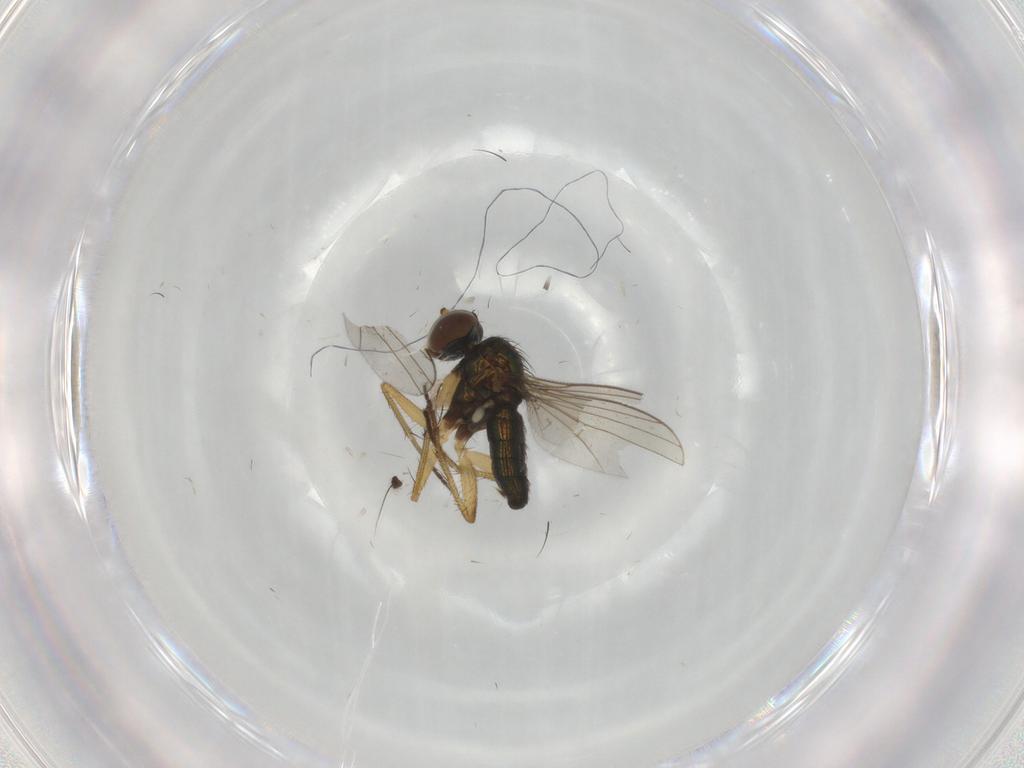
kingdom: Animalia
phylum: Arthropoda
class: Insecta
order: Diptera
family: Dolichopodidae
